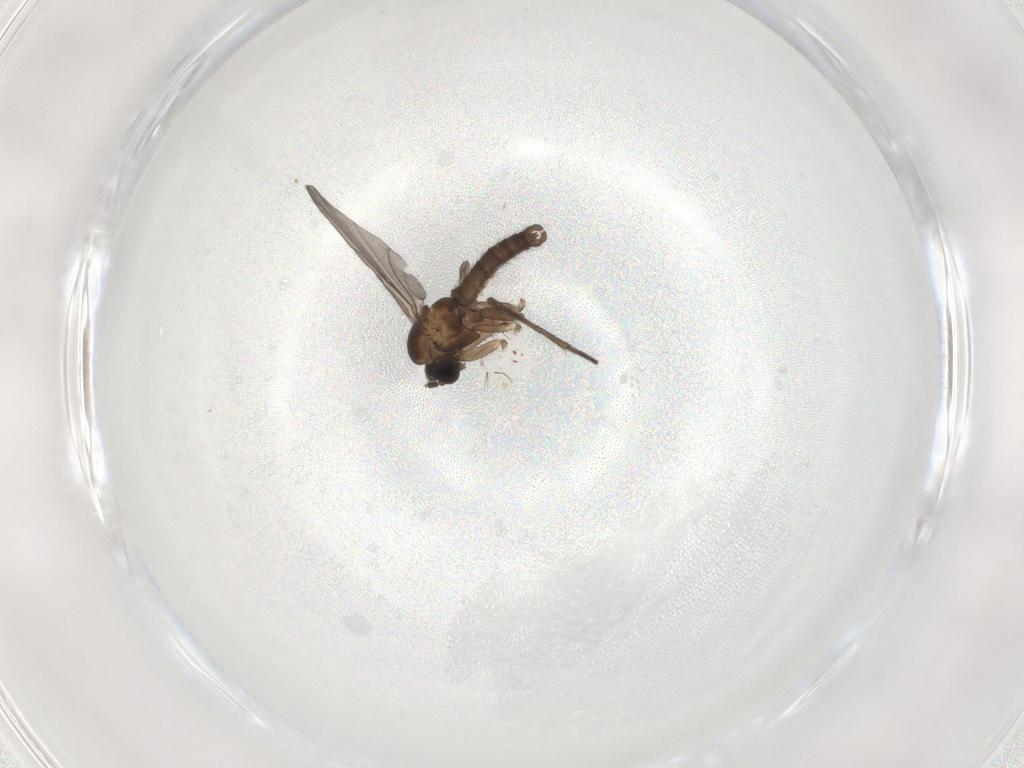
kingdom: Animalia
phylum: Arthropoda
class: Insecta
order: Diptera
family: Sciaridae
